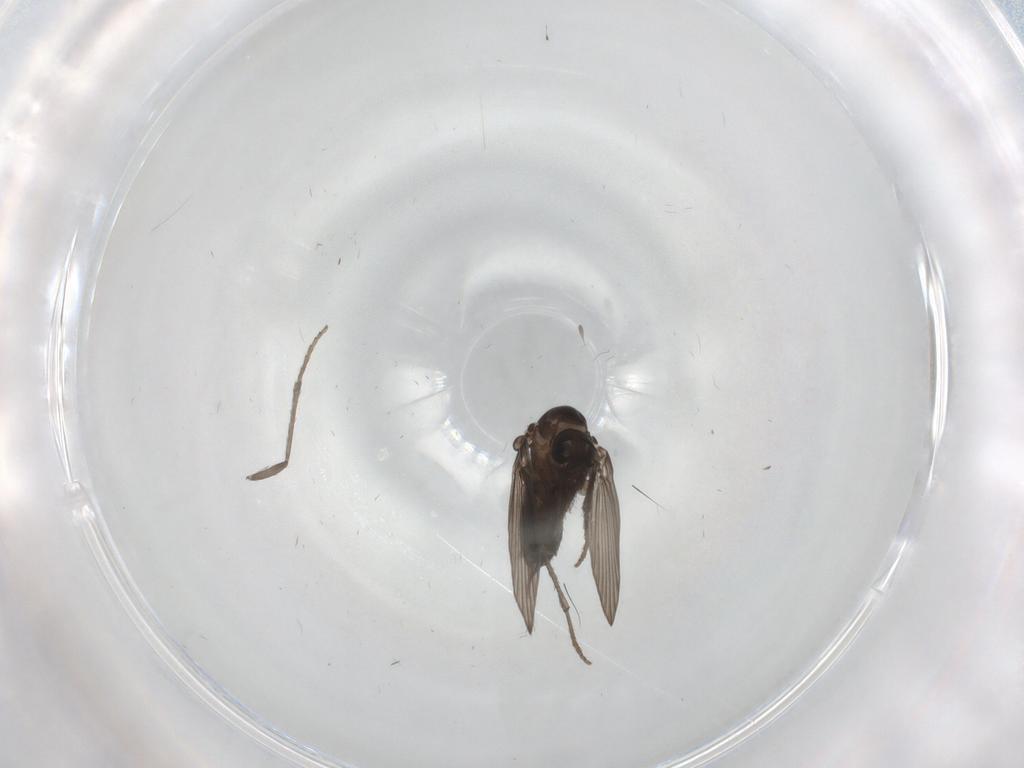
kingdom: Animalia
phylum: Arthropoda
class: Insecta
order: Diptera
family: Psychodidae
